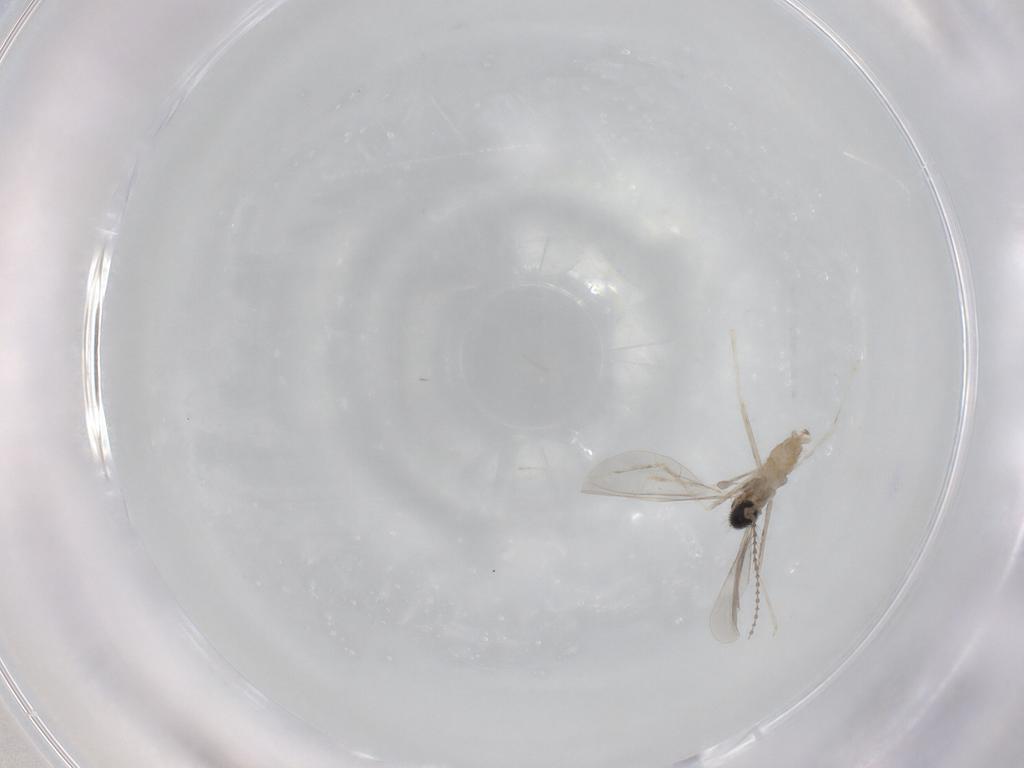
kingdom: Animalia
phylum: Arthropoda
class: Insecta
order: Diptera
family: Cecidomyiidae
